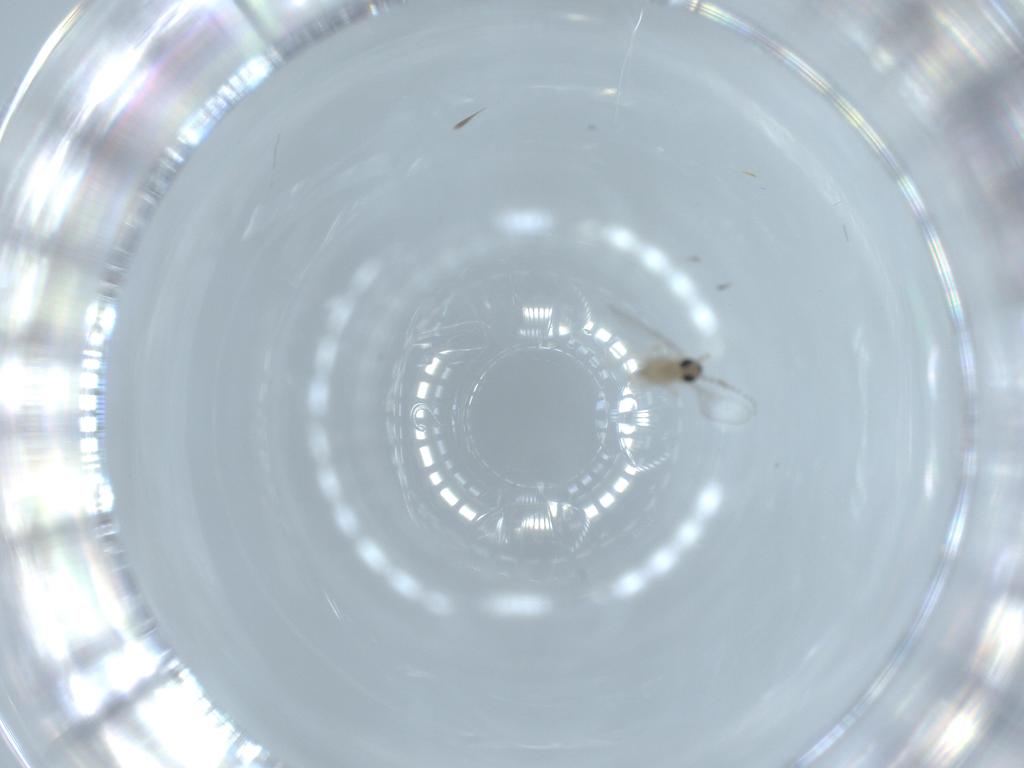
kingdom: Animalia
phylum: Arthropoda
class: Insecta
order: Diptera
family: Cecidomyiidae
